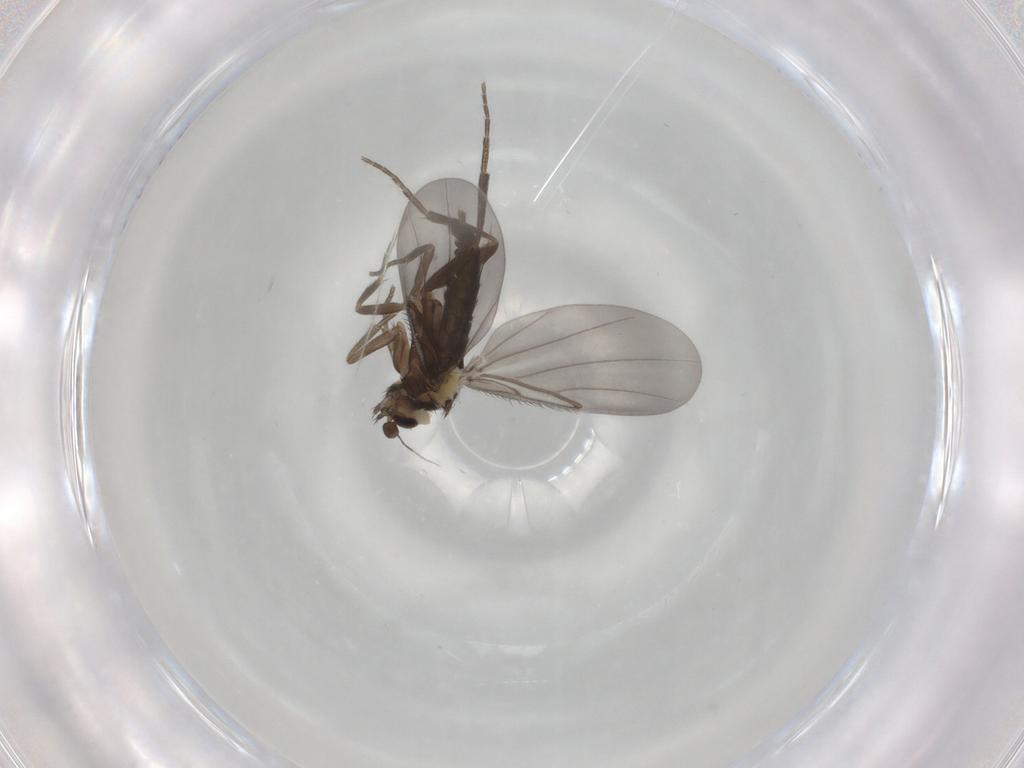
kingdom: Animalia
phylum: Arthropoda
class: Insecta
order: Diptera
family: Phoridae
